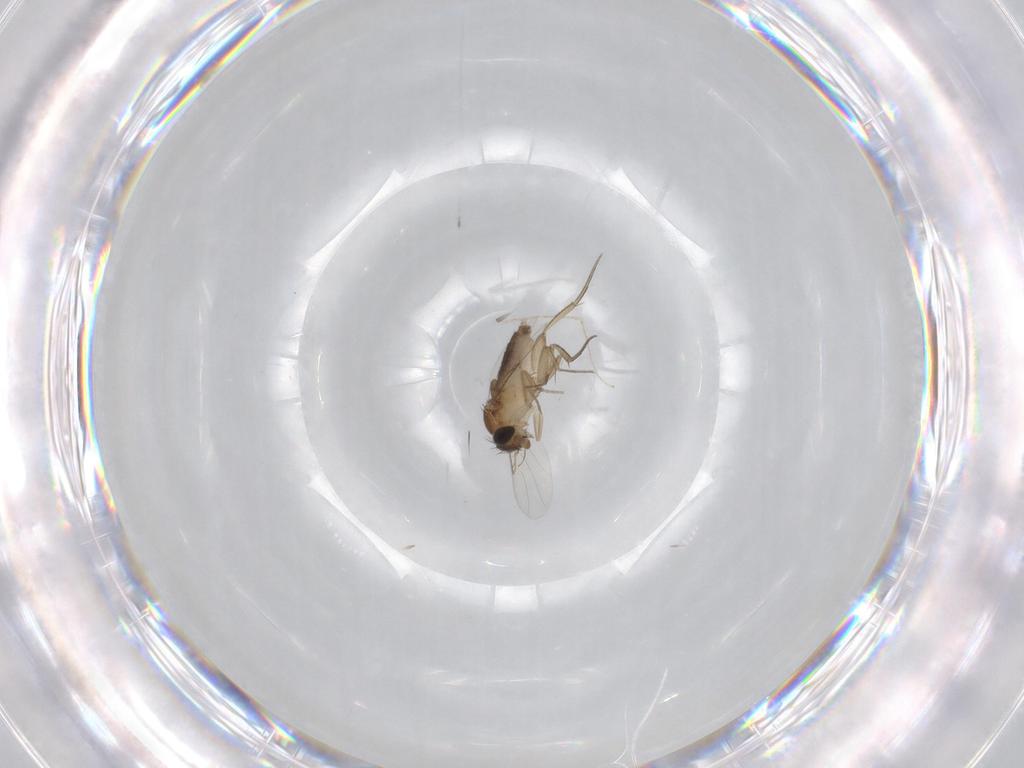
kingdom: Animalia
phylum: Arthropoda
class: Insecta
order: Diptera
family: Phoridae
